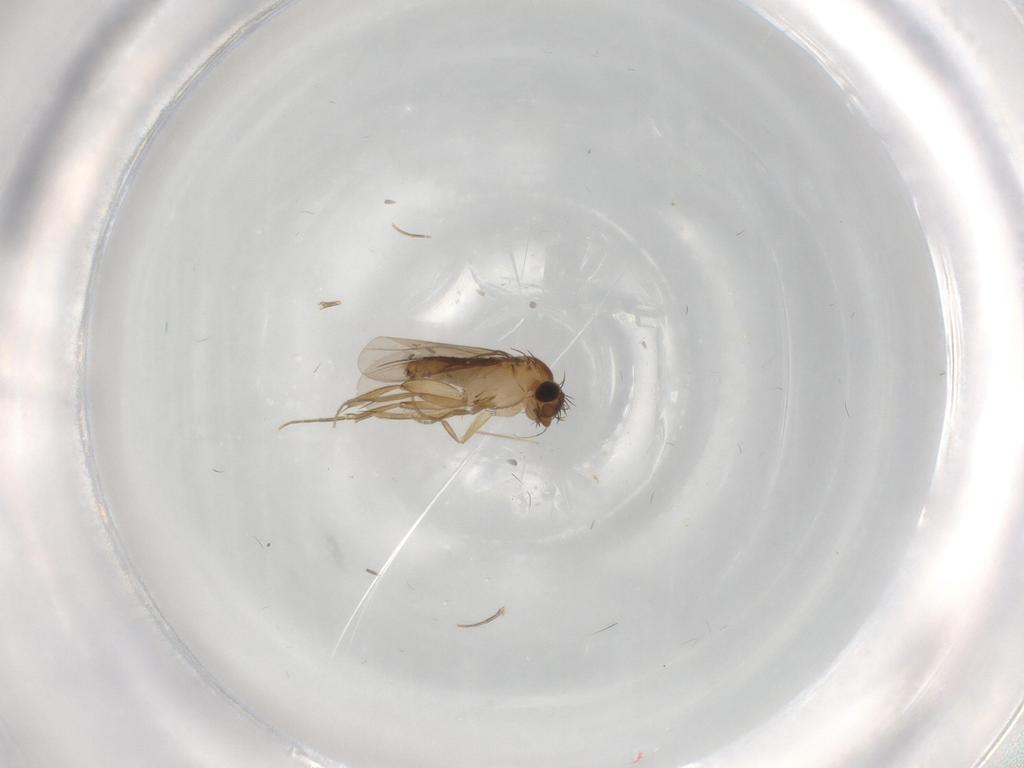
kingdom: Animalia
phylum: Arthropoda
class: Insecta
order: Diptera
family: Phoridae
